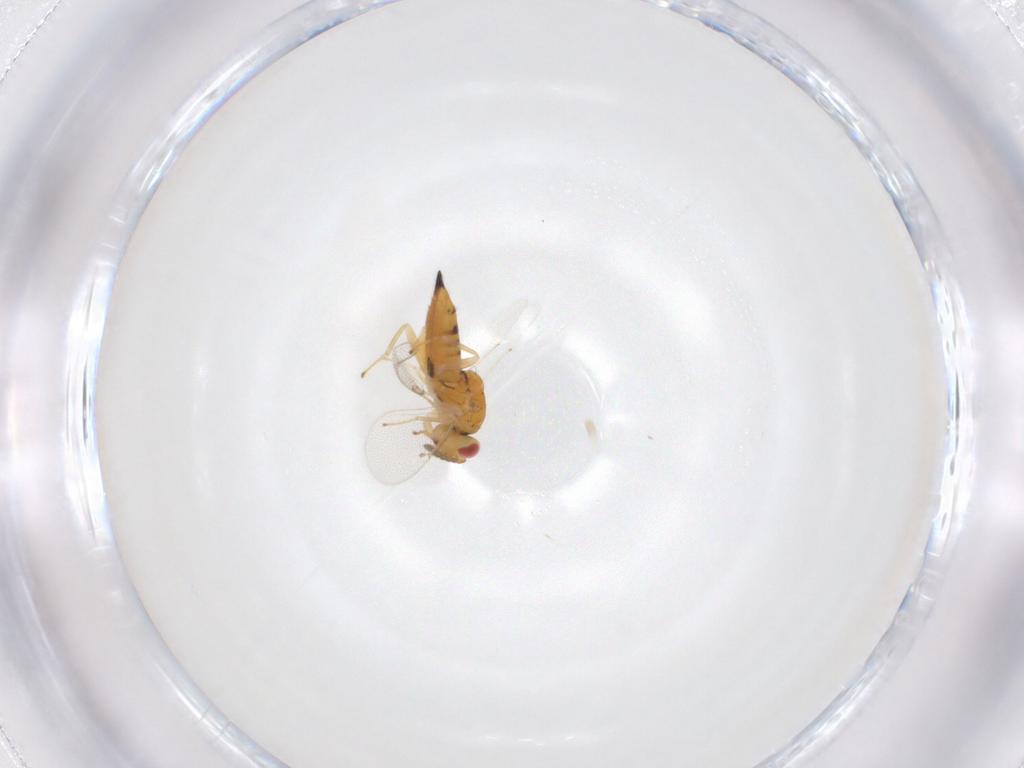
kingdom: Animalia
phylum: Arthropoda
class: Insecta
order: Hymenoptera
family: Eulophidae
